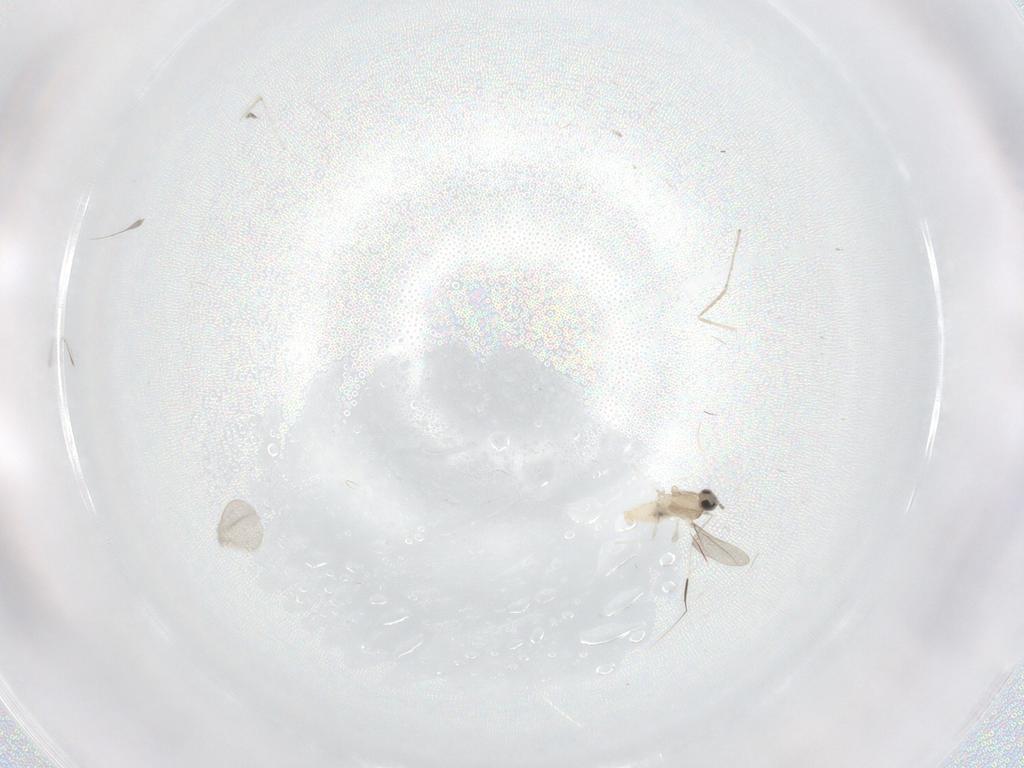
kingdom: Animalia
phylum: Arthropoda
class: Insecta
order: Diptera
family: Cecidomyiidae
